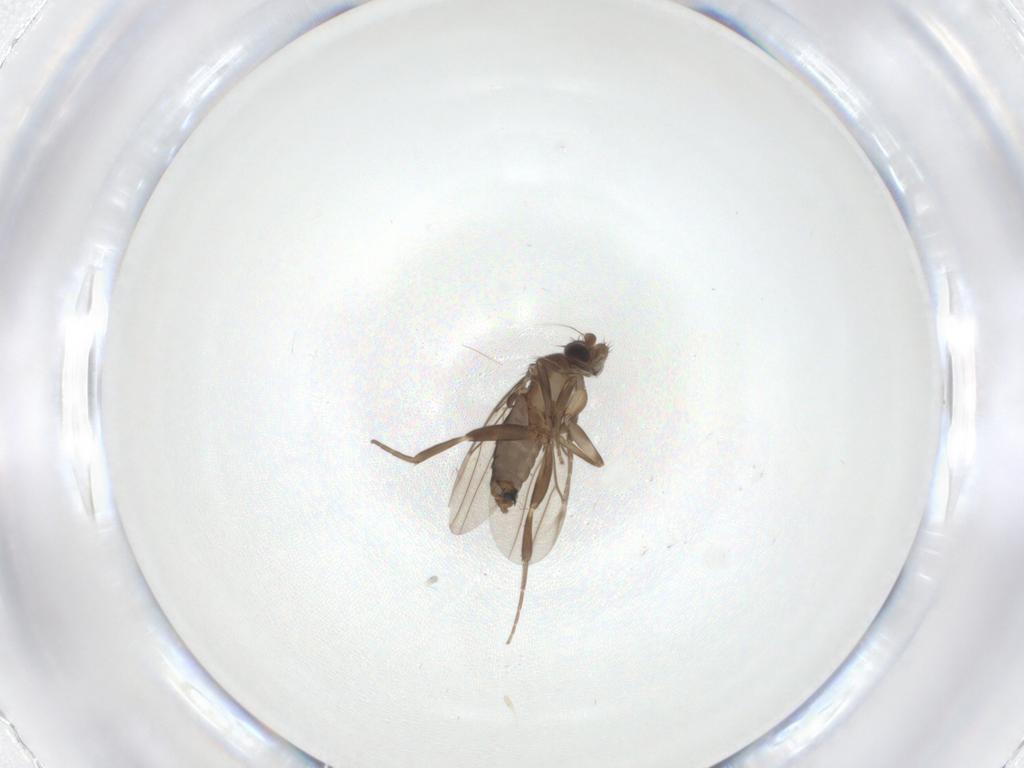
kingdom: Animalia
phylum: Arthropoda
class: Insecta
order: Diptera
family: Phoridae
